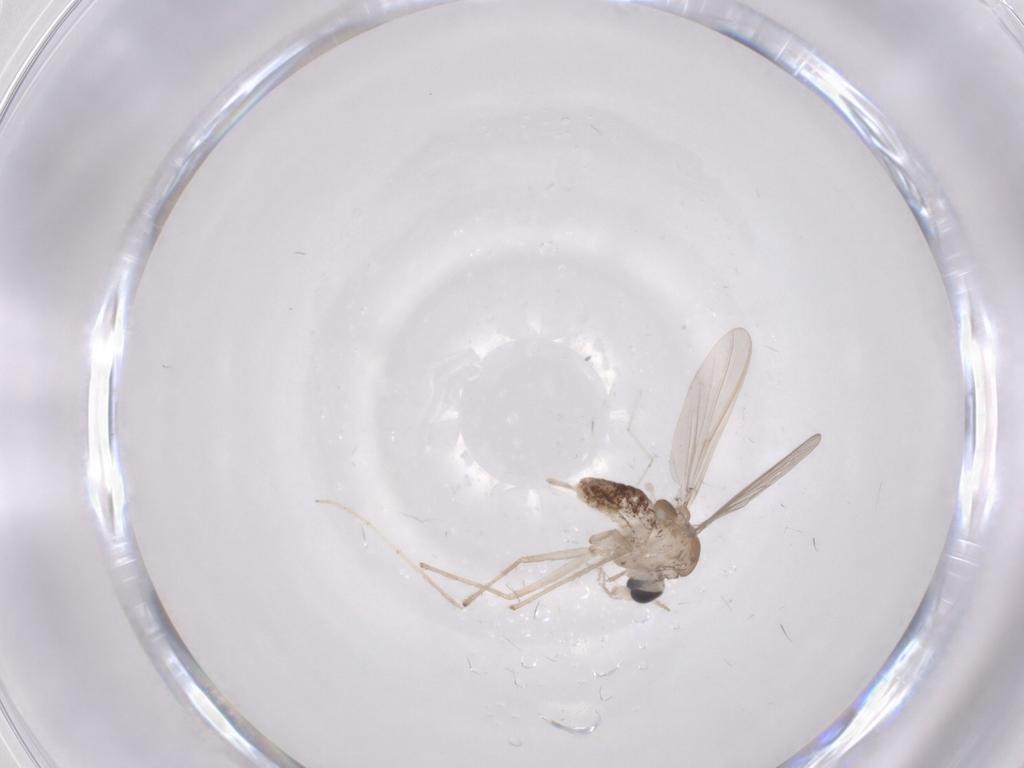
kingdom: Animalia
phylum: Arthropoda
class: Insecta
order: Diptera
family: Chironomidae
